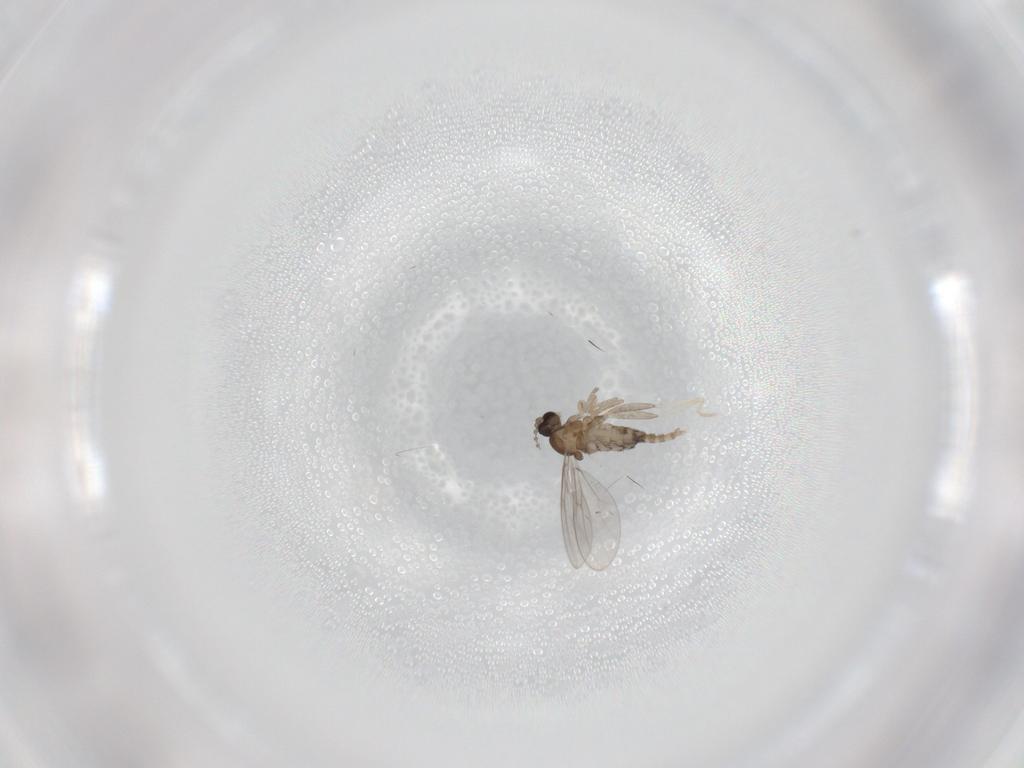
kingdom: Animalia
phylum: Arthropoda
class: Insecta
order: Diptera
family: Cecidomyiidae
